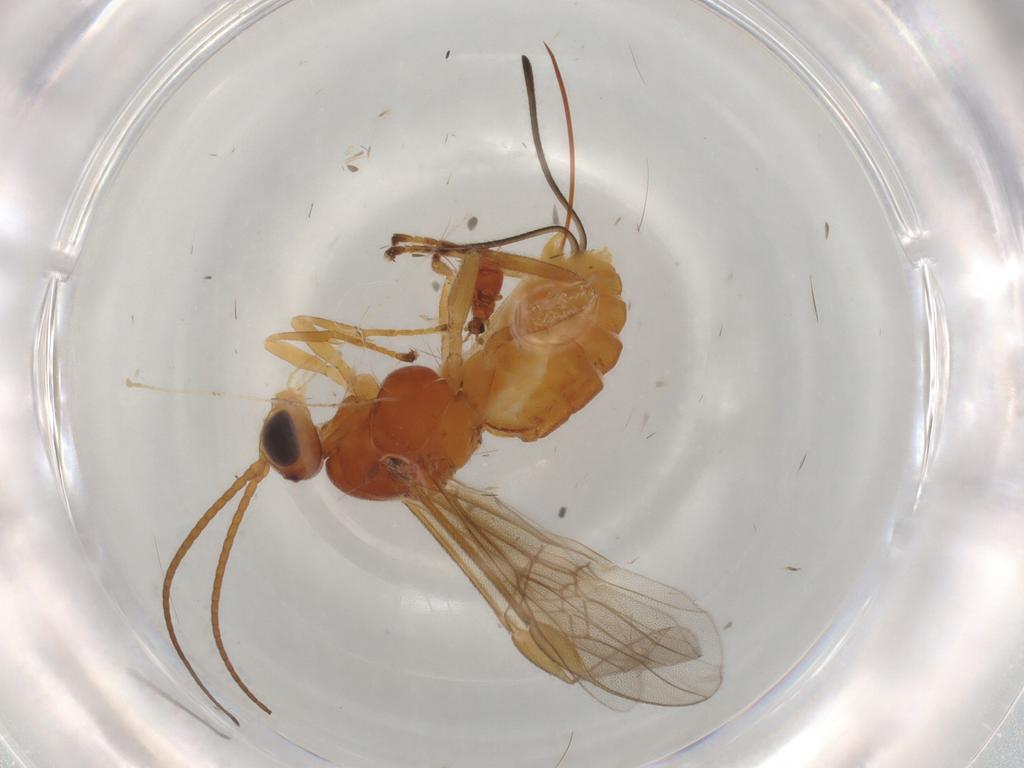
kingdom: Animalia
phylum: Arthropoda
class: Insecta
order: Hymenoptera
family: Braconidae
